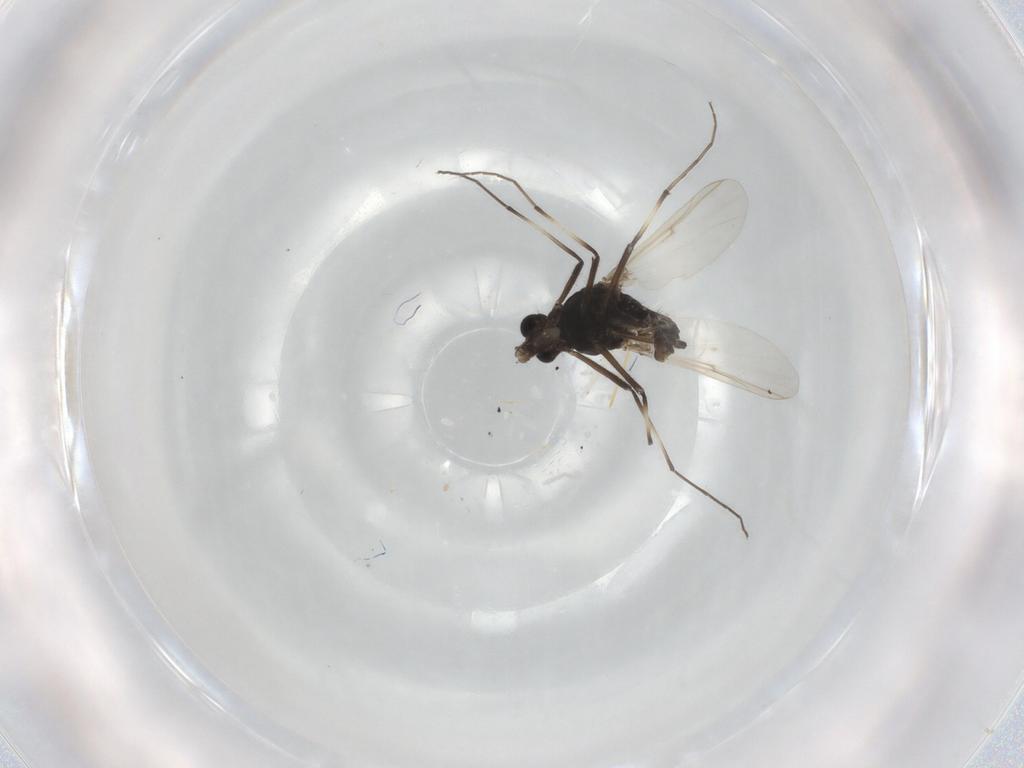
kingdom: Animalia
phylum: Arthropoda
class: Insecta
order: Diptera
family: Chironomidae
